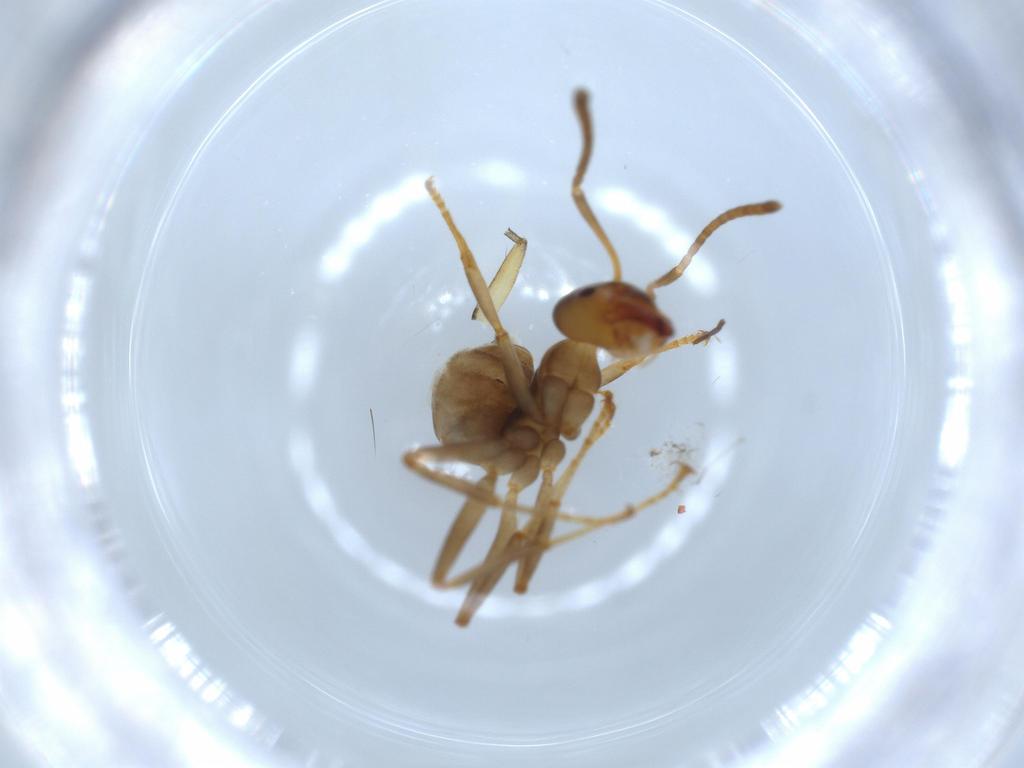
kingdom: Animalia
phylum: Arthropoda
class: Insecta
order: Hymenoptera
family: Formicidae
